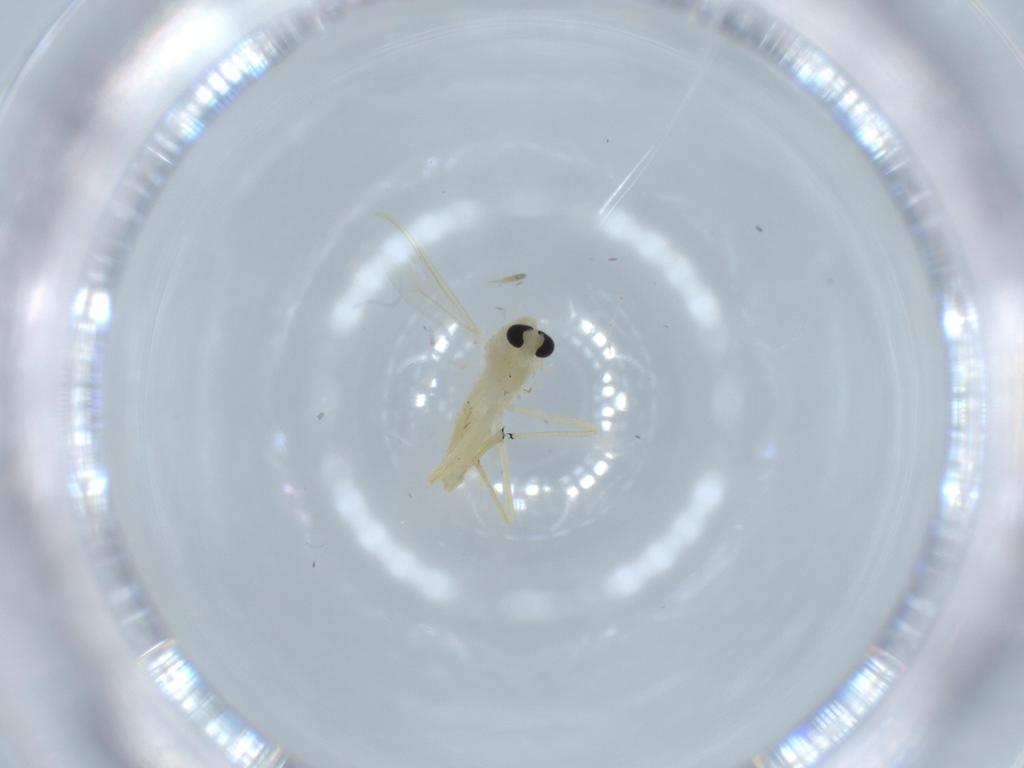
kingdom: Animalia
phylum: Arthropoda
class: Insecta
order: Diptera
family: Chironomidae
